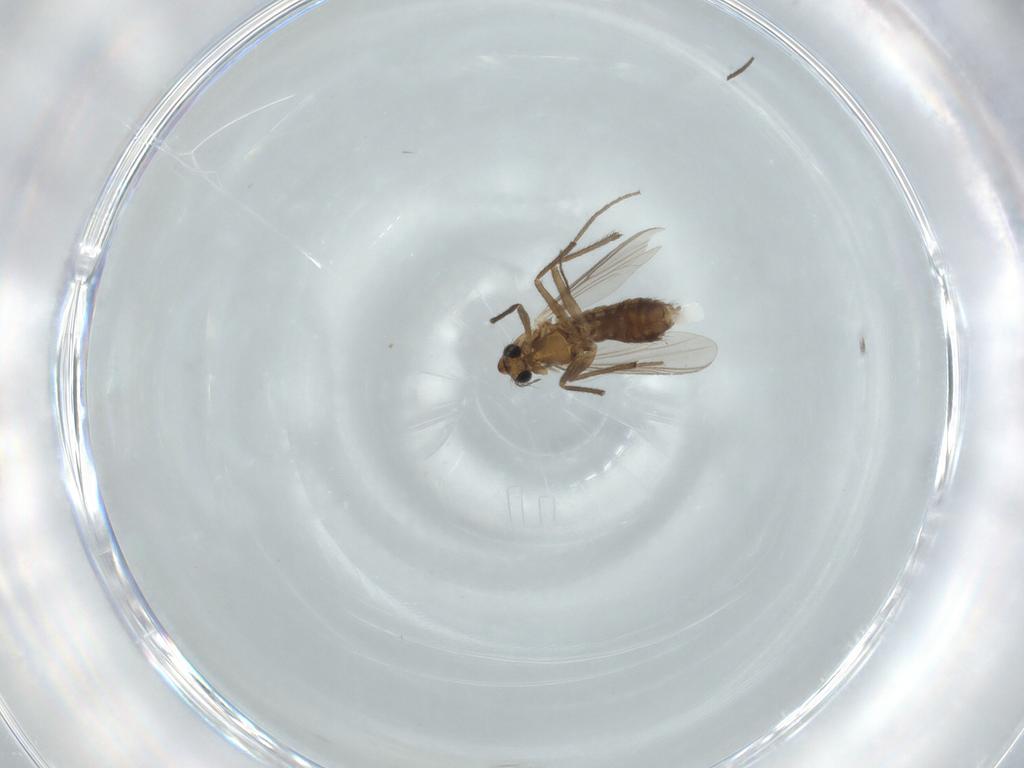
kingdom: Animalia
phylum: Arthropoda
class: Insecta
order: Diptera
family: Chironomidae
